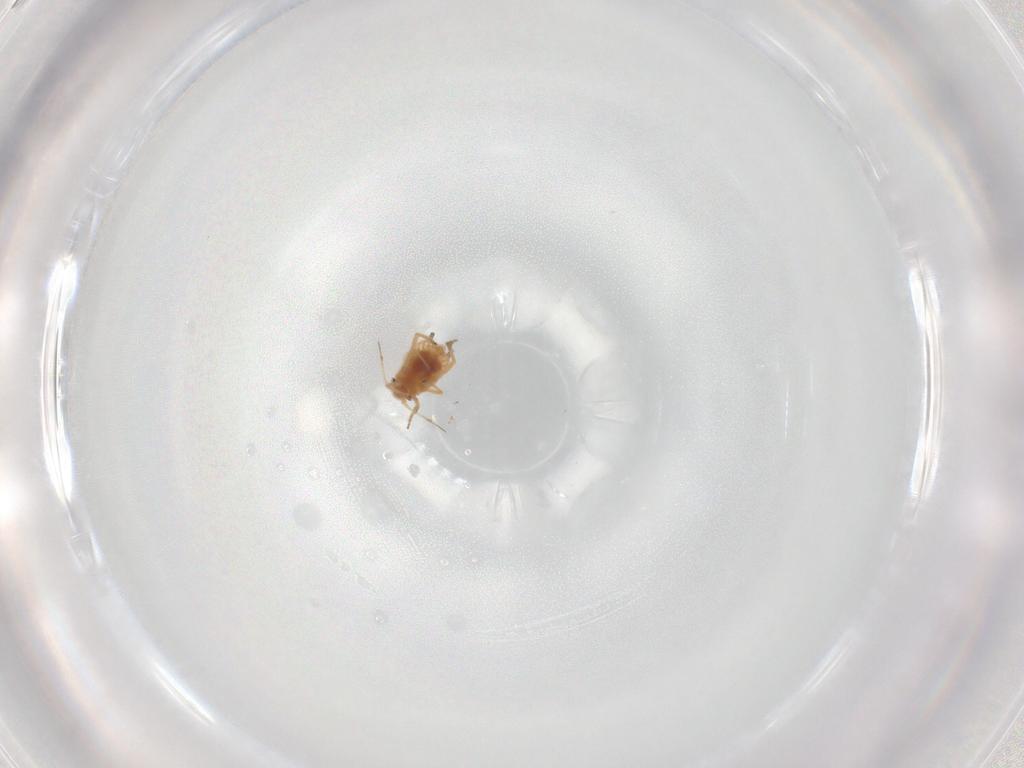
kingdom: Animalia
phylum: Arthropoda
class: Insecta
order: Hemiptera
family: Aphididae
